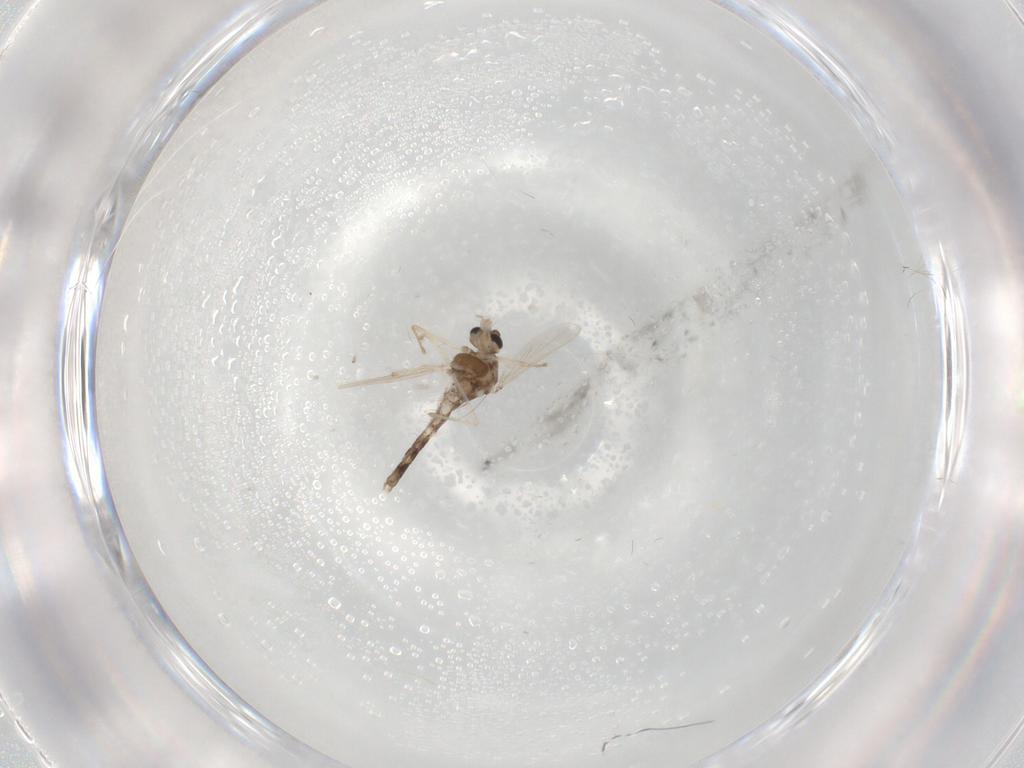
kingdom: Animalia
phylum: Arthropoda
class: Insecta
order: Diptera
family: Chironomidae
